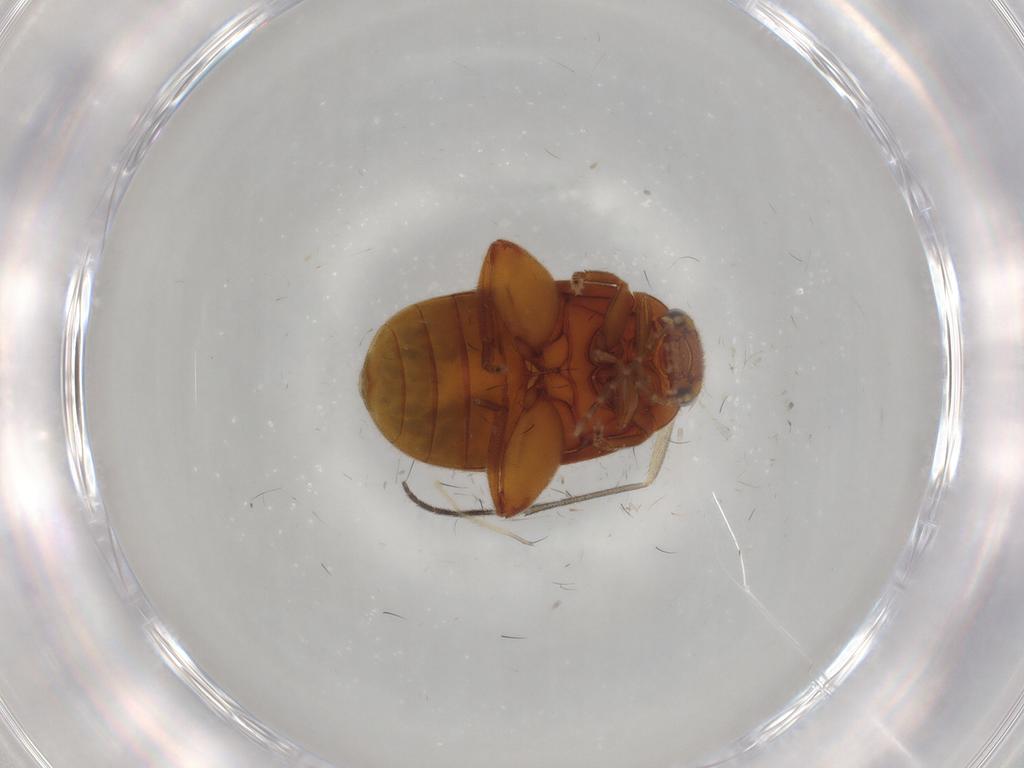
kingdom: Animalia
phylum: Arthropoda
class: Insecta
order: Coleoptera
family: Scirtidae
